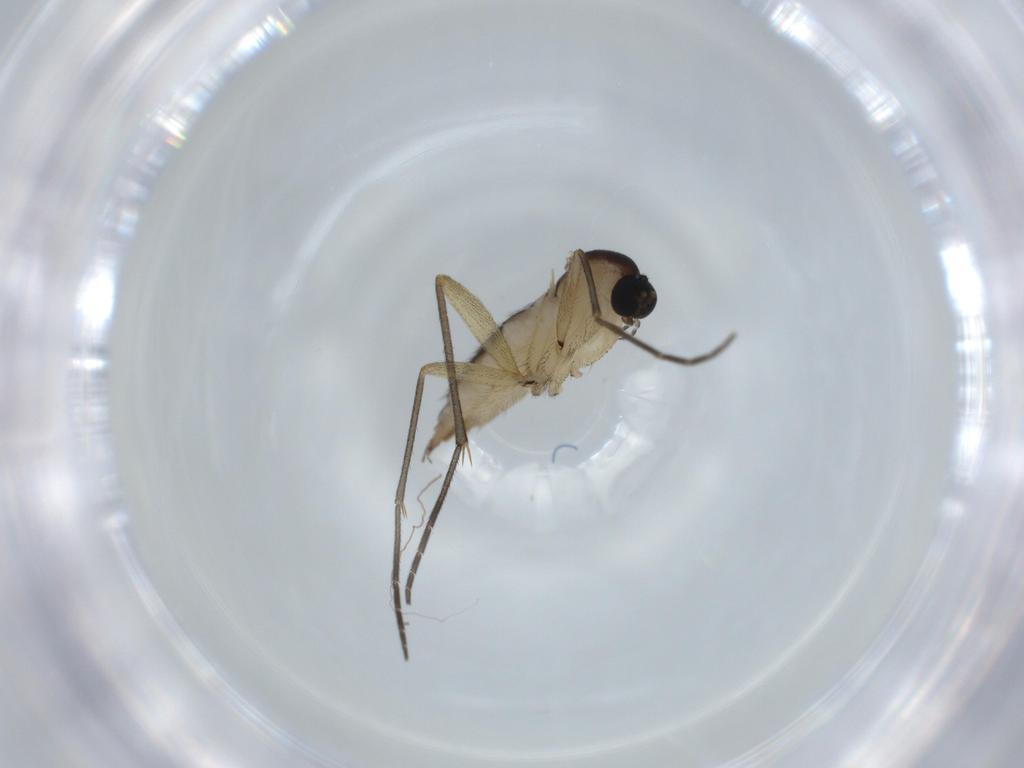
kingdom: Animalia
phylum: Arthropoda
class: Insecta
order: Diptera
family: Sciaridae
